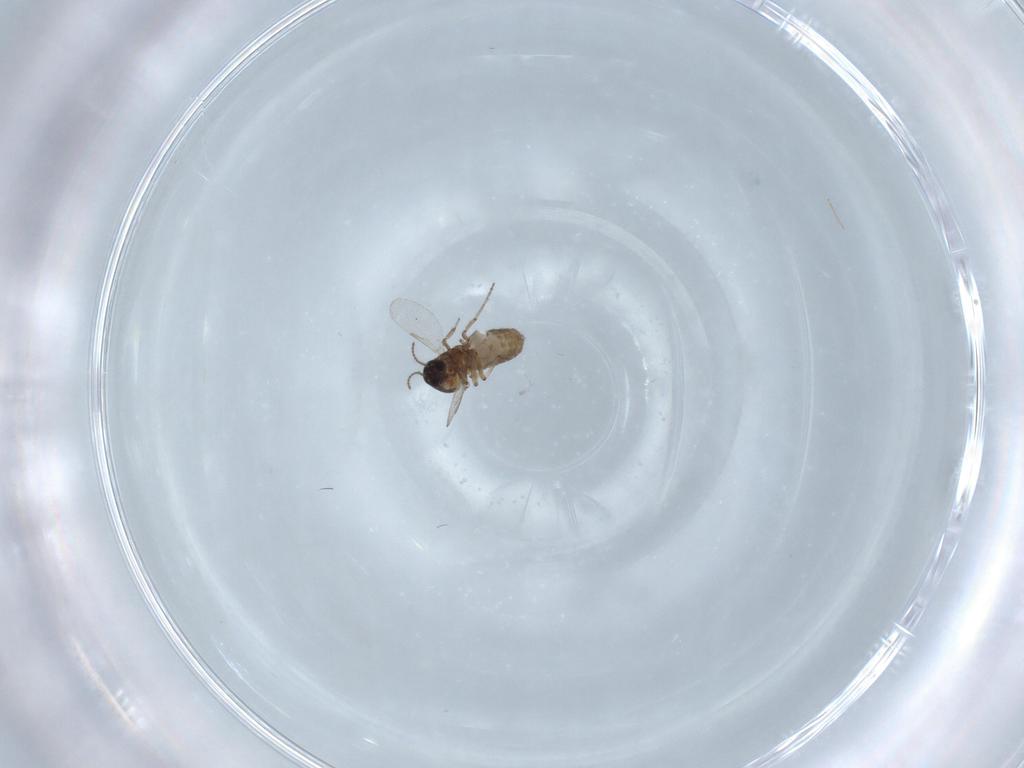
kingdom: Animalia
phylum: Arthropoda
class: Insecta
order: Diptera
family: Ceratopogonidae
